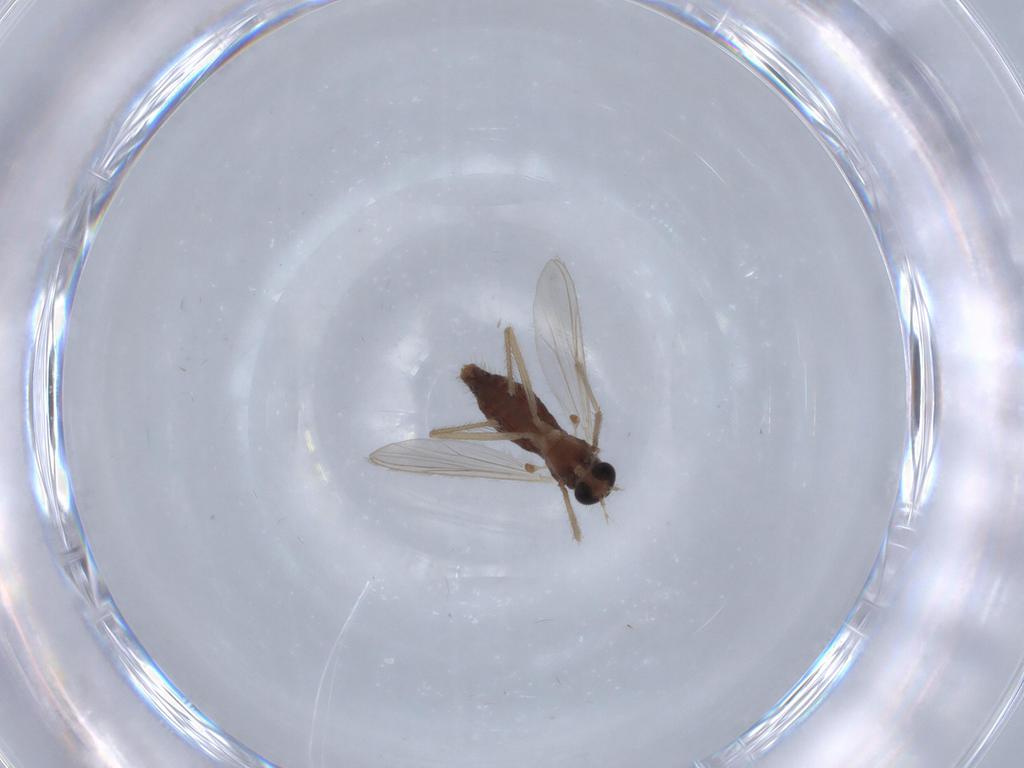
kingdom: Animalia
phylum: Arthropoda
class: Insecta
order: Diptera
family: Chironomidae
